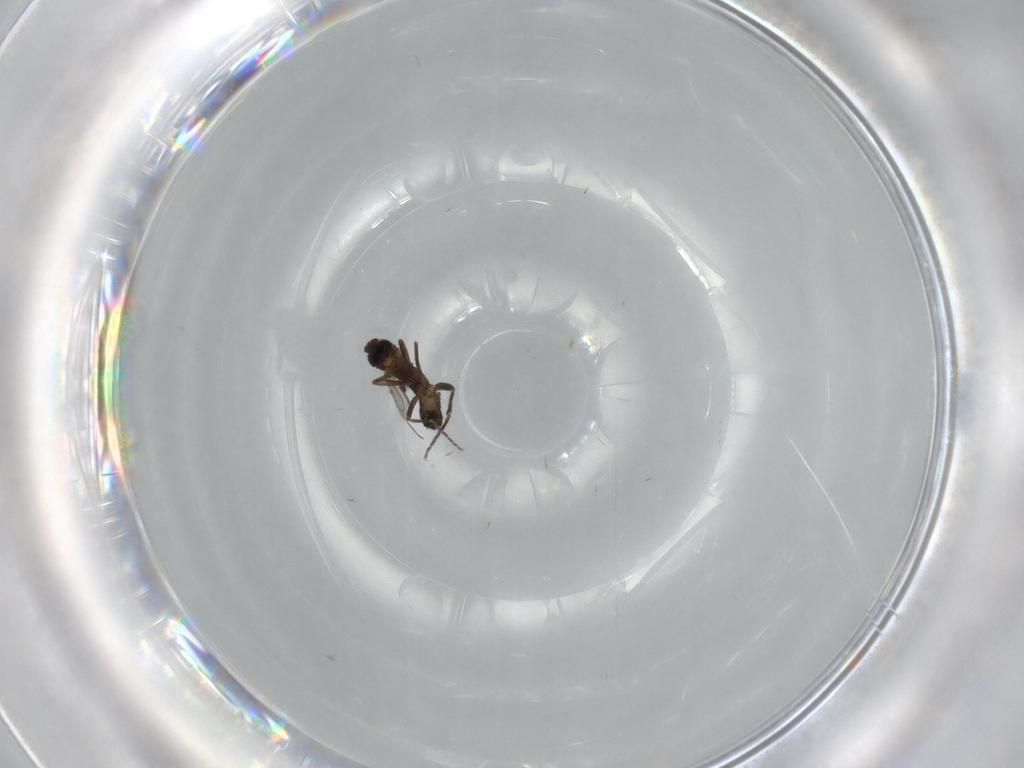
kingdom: Animalia
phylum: Arthropoda
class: Insecta
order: Diptera
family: Phoridae
